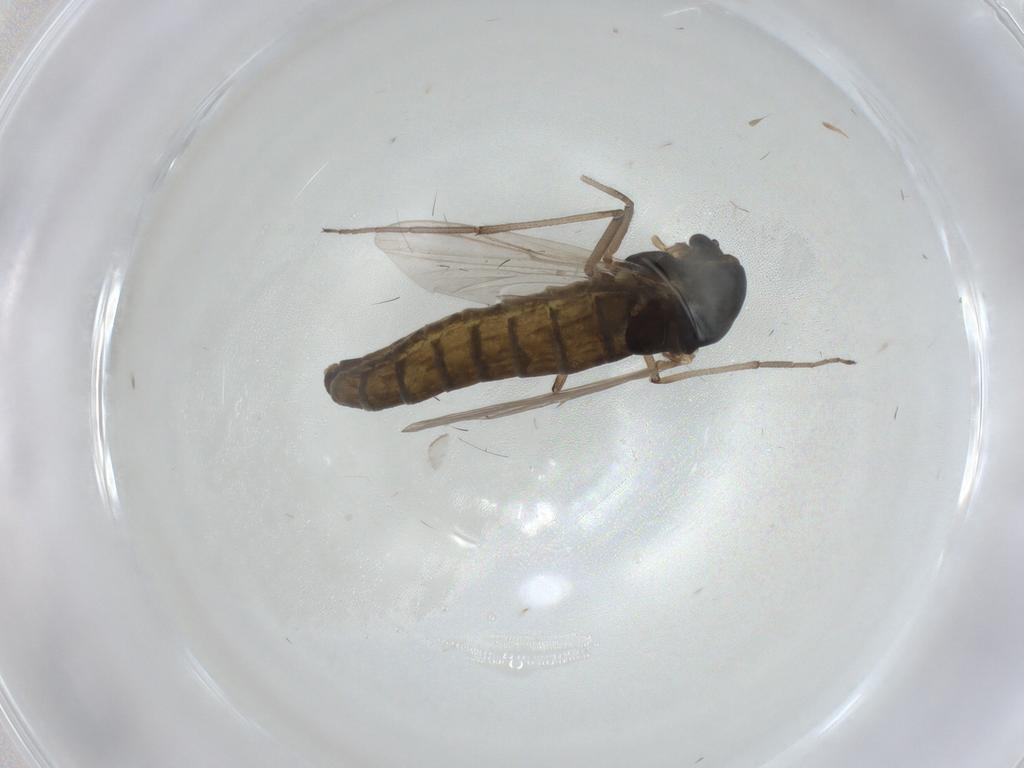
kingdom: Animalia
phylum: Arthropoda
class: Insecta
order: Diptera
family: Chironomidae
